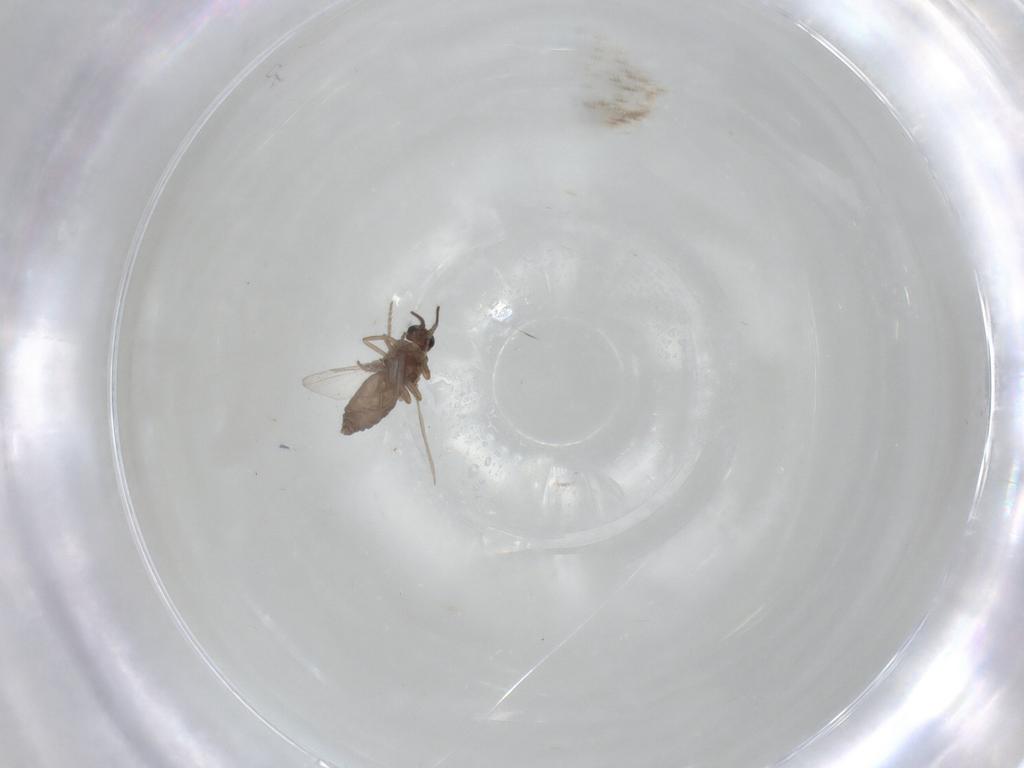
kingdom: Animalia
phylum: Arthropoda
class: Insecta
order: Diptera
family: Ceratopogonidae
